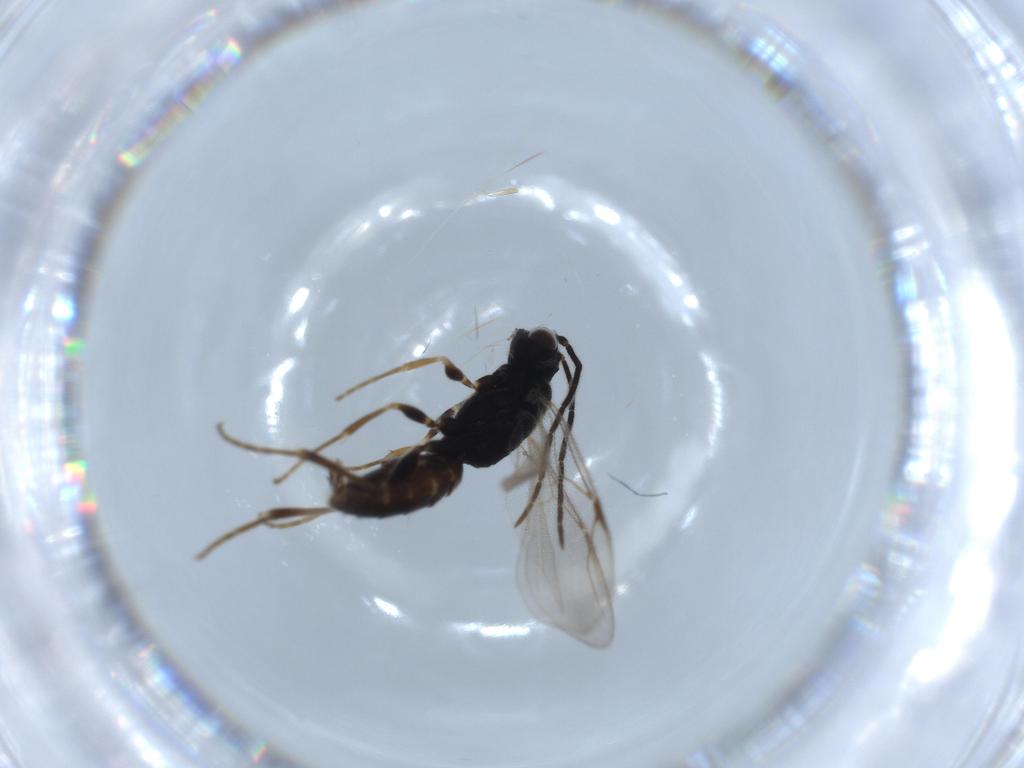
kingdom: Animalia
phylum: Arthropoda
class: Insecta
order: Hymenoptera
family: Dryinidae
